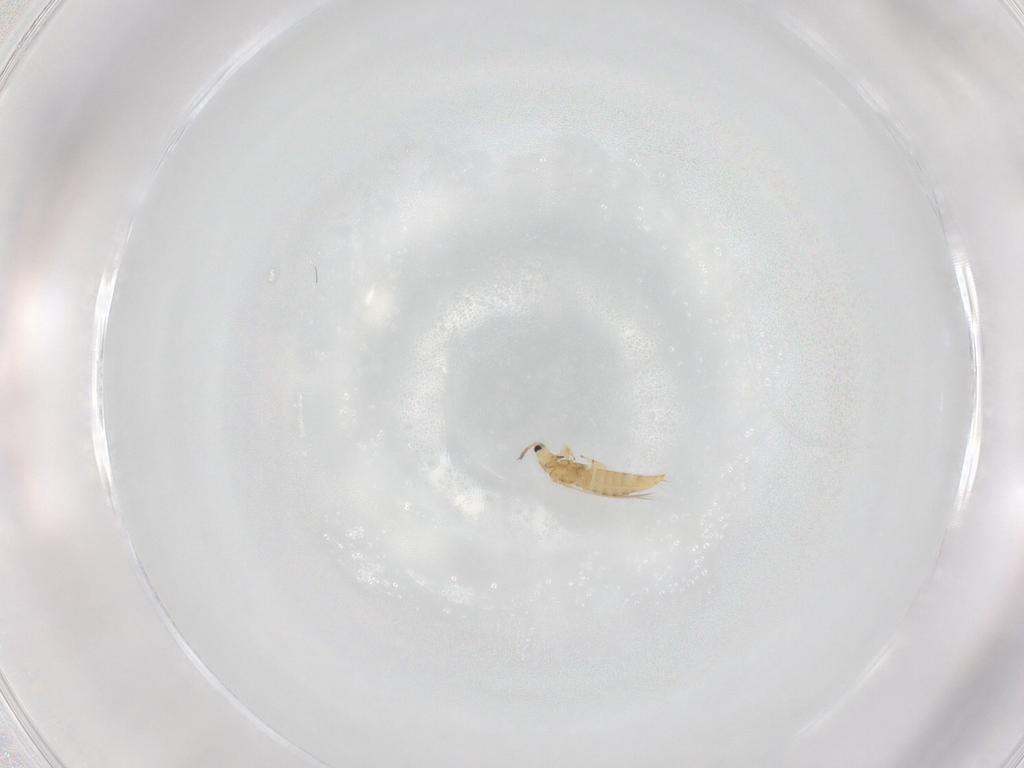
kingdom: Animalia
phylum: Arthropoda
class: Insecta
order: Thysanoptera
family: Thripidae
